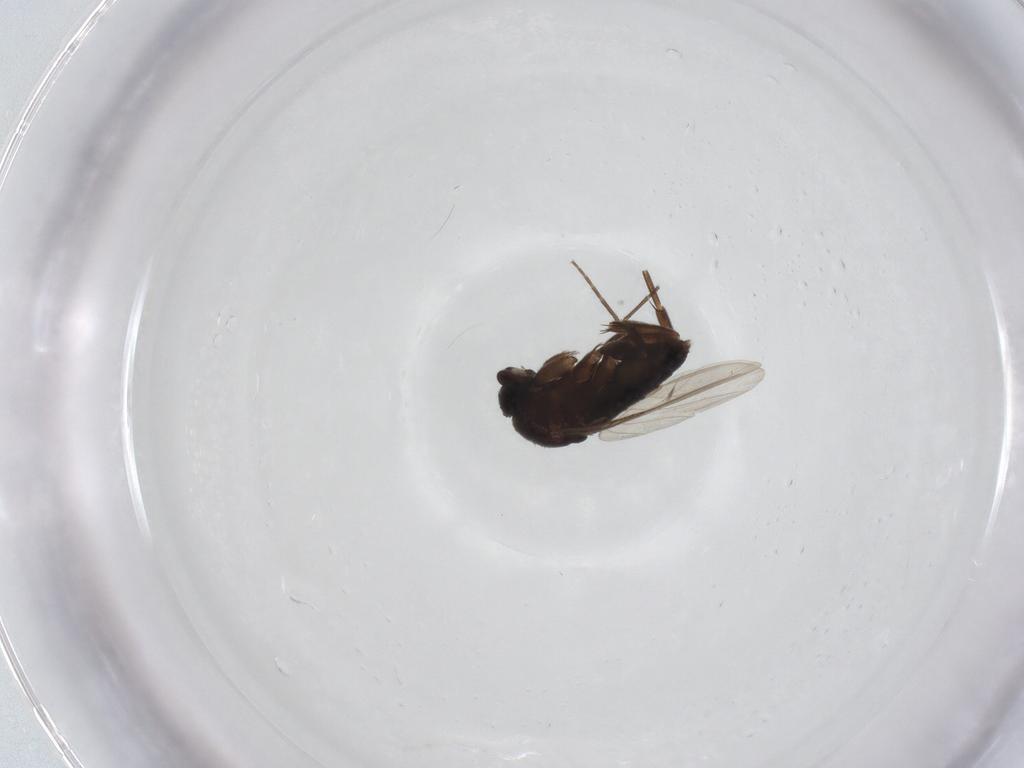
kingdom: Animalia
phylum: Arthropoda
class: Insecta
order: Diptera
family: Phoridae
